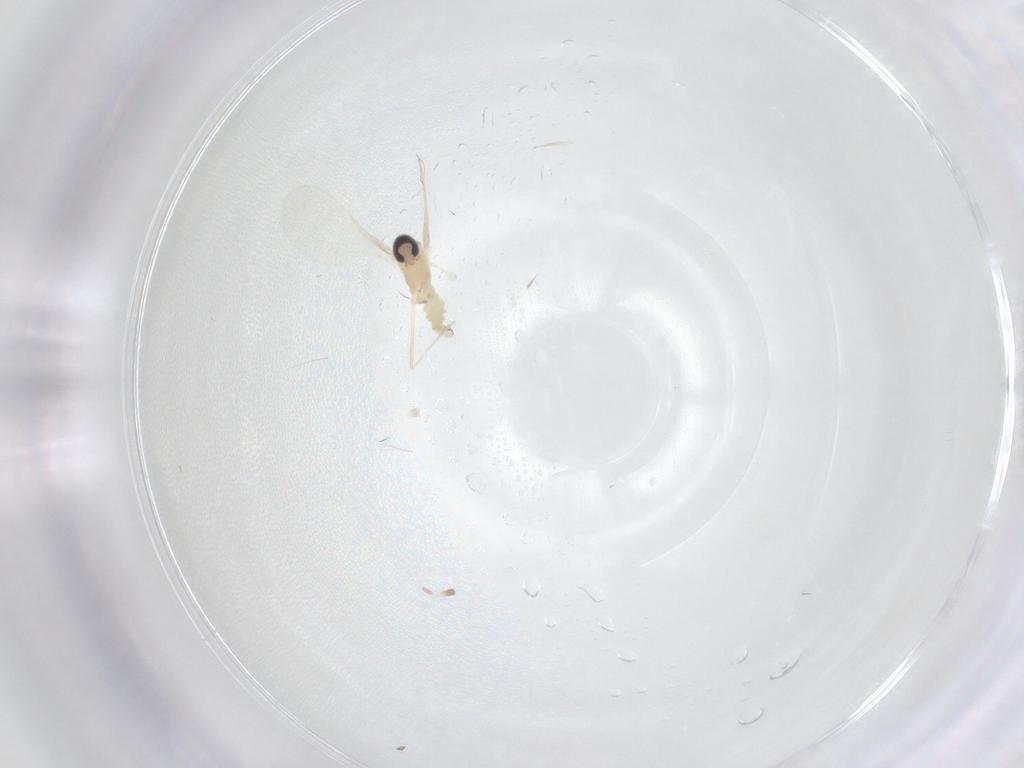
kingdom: Animalia
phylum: Arthropoda
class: Insecta
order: Diptera
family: Cecidomyiidae
